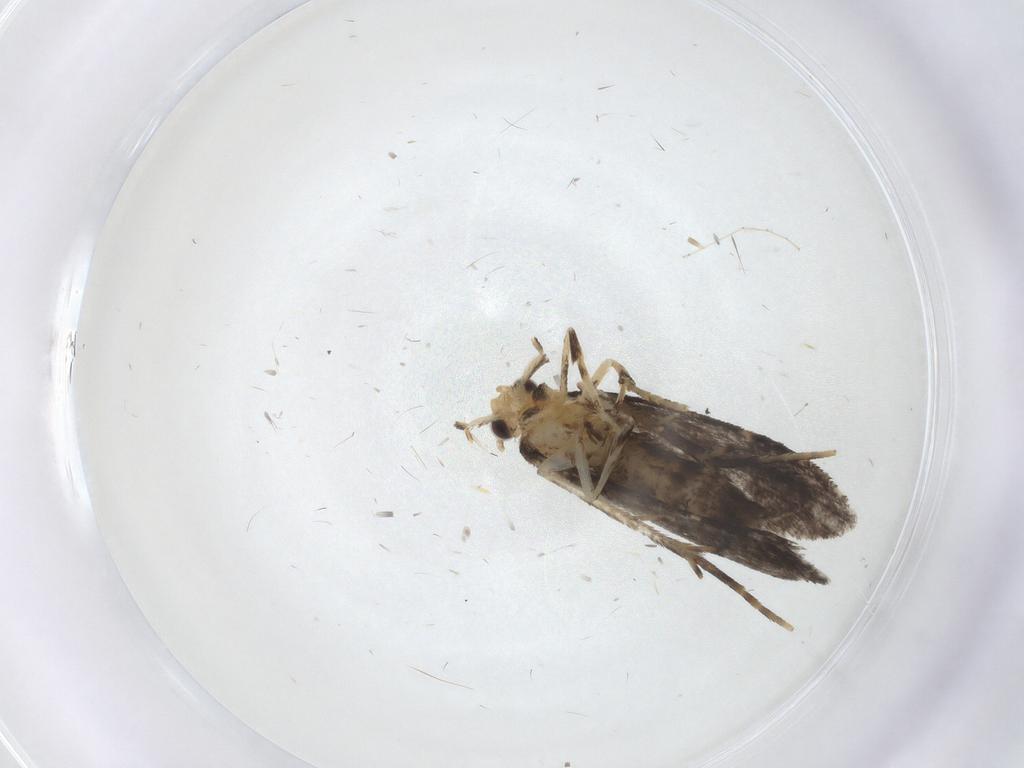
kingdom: Animalia
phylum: Arthropoda
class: Insecta
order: Lepidoptera
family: Tineidae
